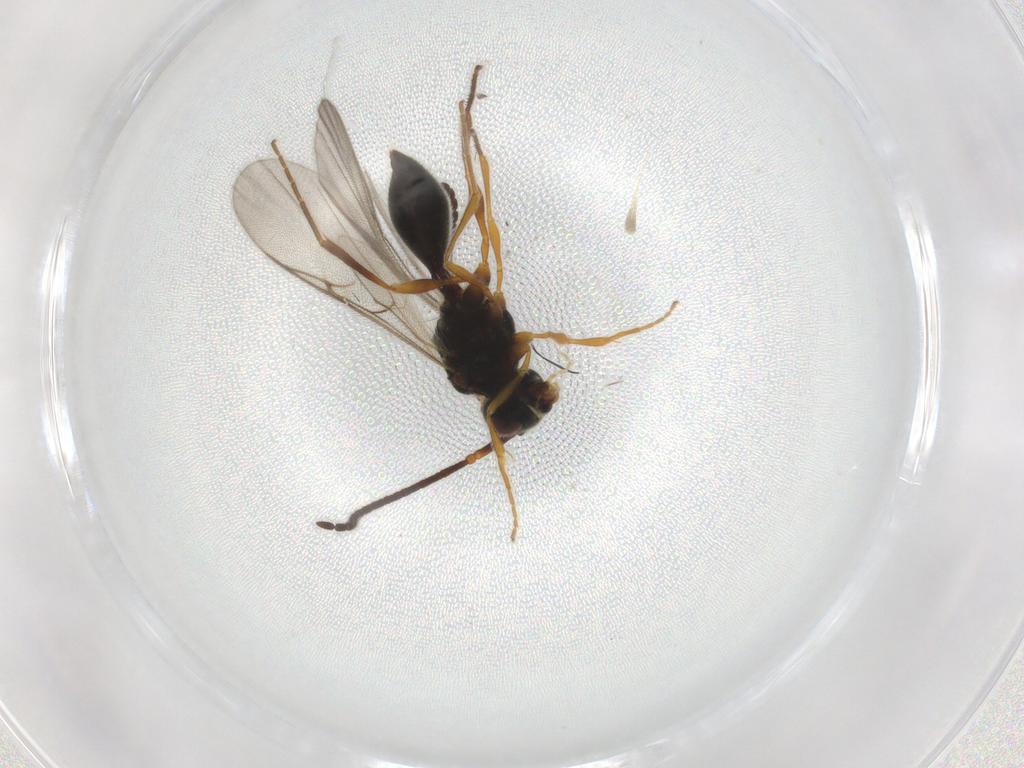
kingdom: Animalia
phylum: Arthropoda
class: Insecta
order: Hymenoptera
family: Diapriidae
